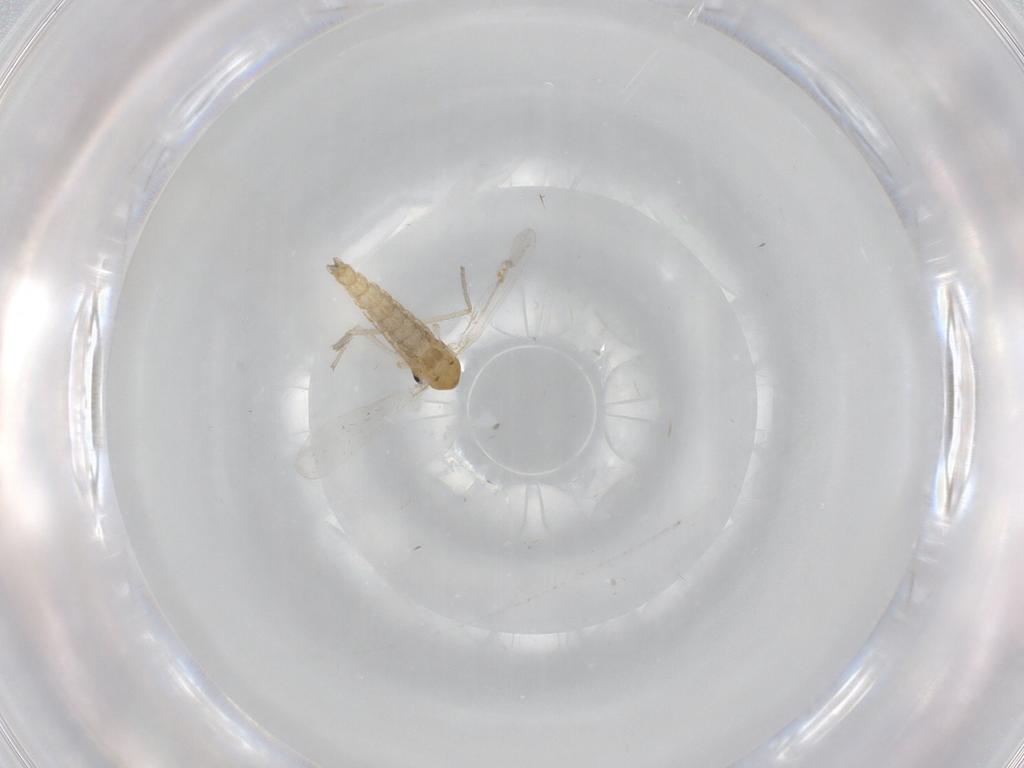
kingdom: Animalia
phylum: Arthropoda
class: Insecta
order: Diptera
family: Chironomidae
